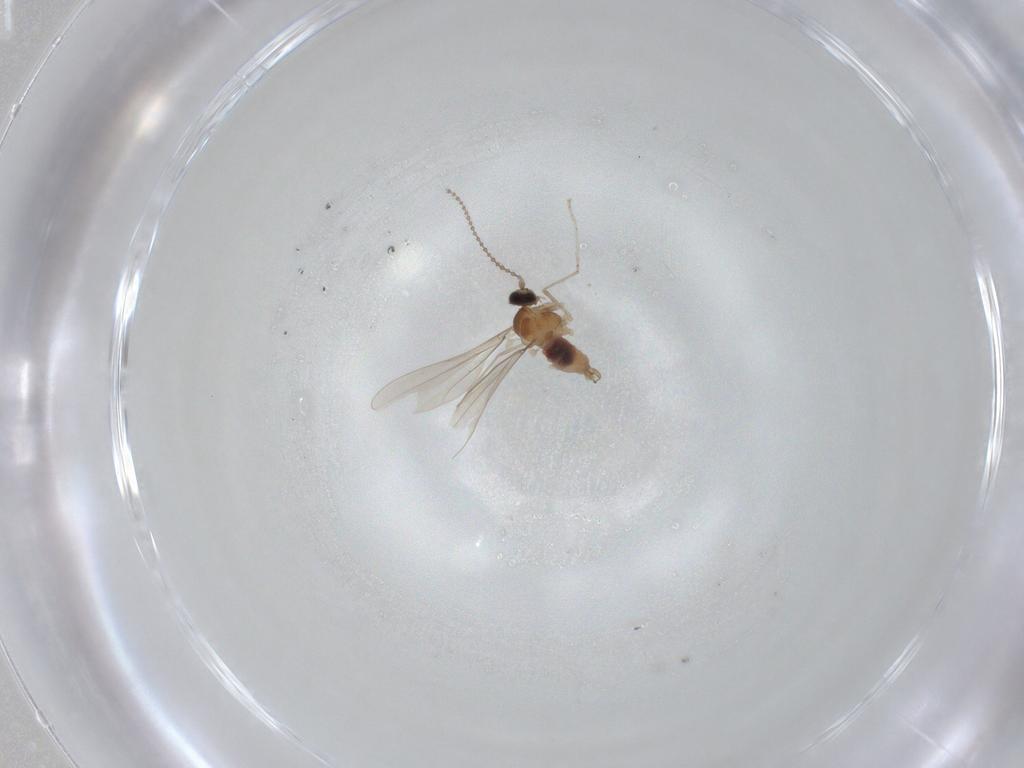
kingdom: Animalia
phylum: Arthropoda
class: Insecta
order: Diptera
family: Cecidomyiidae
